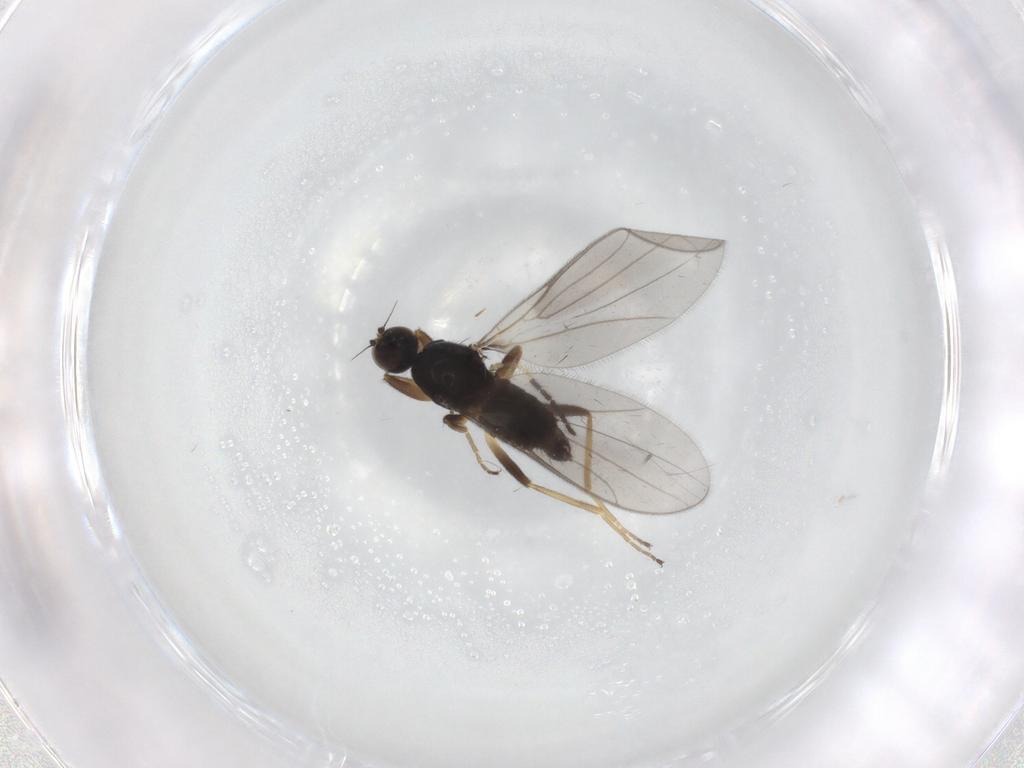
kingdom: Animalia
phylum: Arthropoda
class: Insecta
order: Diptera
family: Hybotidae
